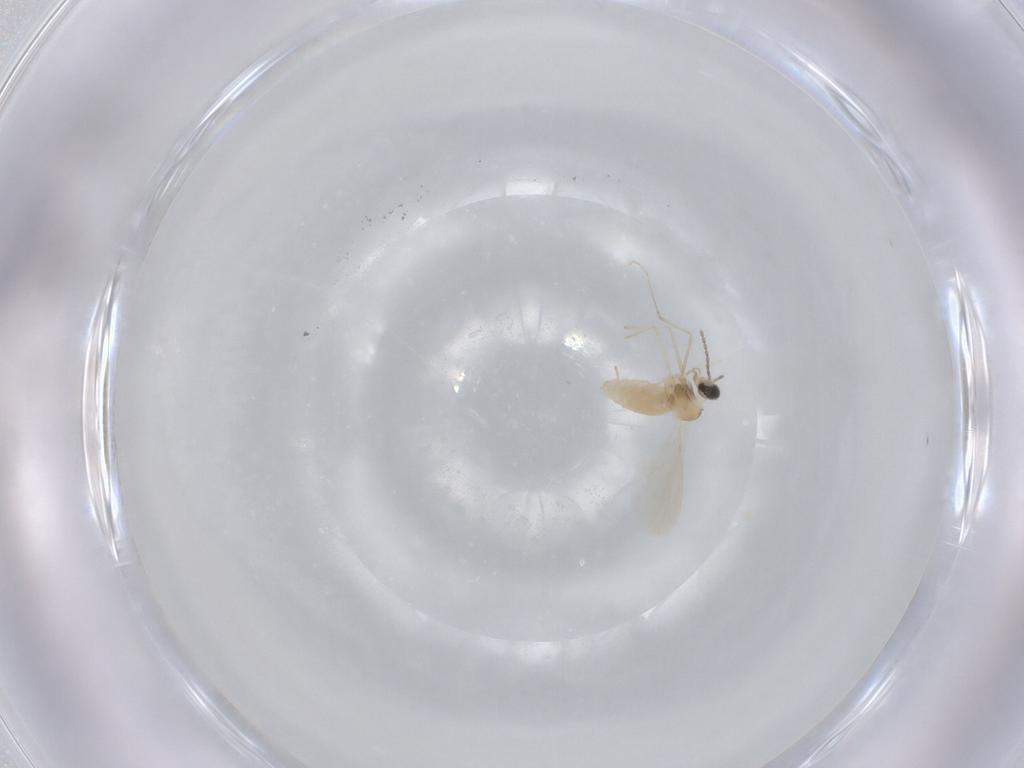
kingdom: Animalia
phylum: Arthropoda
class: Insecta
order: Diptera
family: Cecidomyiidae
